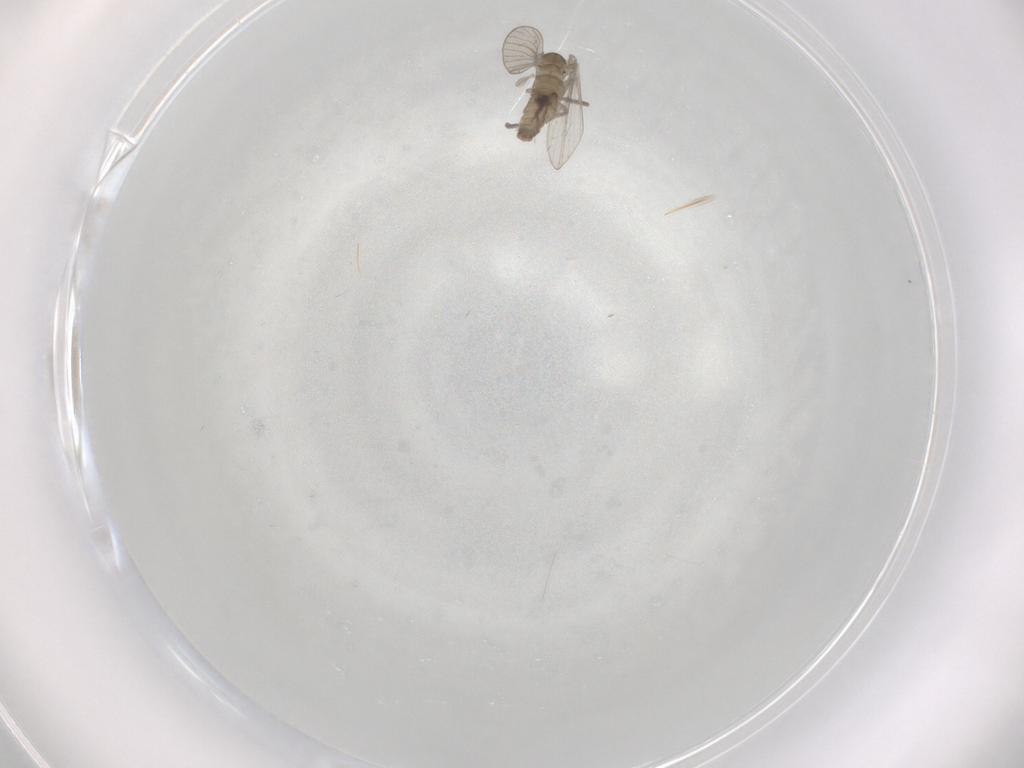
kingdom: Animalia
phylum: Arthropoda
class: Insecta
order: Diptera
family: Psychodidae
